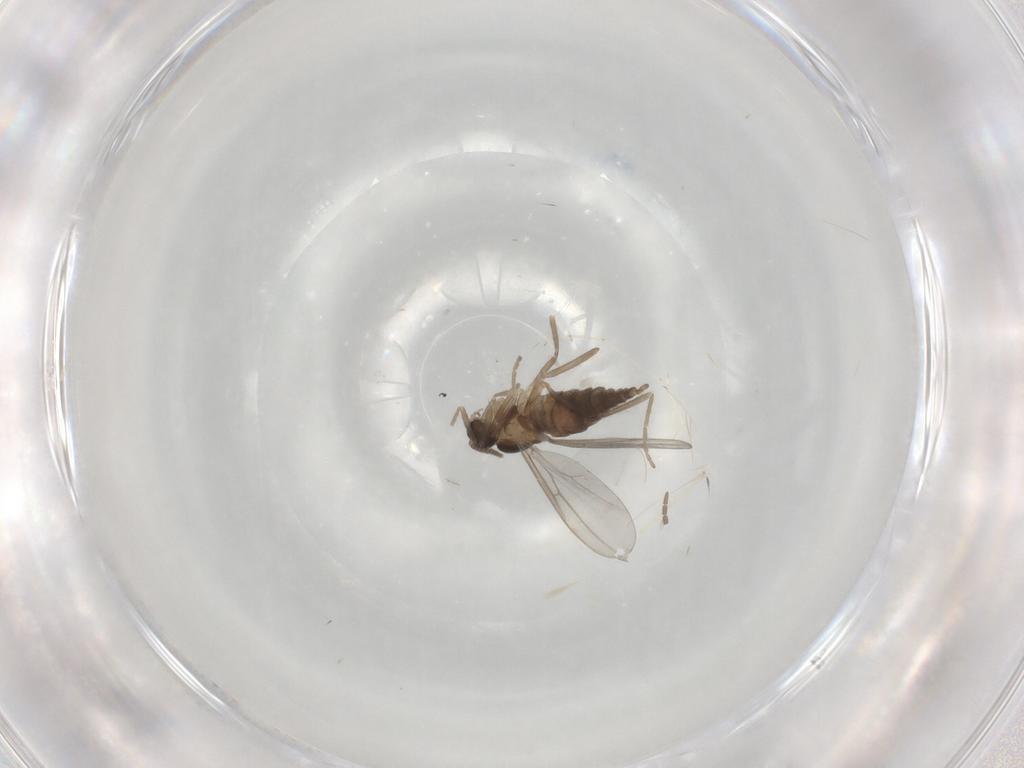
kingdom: Animalia
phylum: Arthropoda
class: Insecta
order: Diptera
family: Cecidomyiidae
